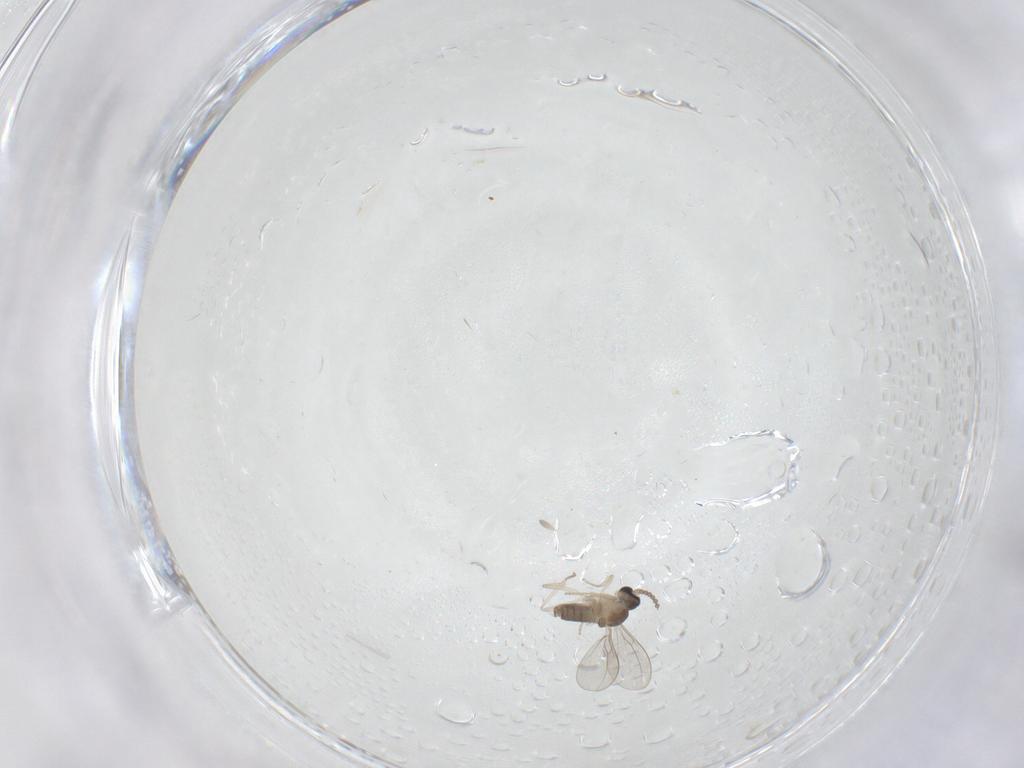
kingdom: Animalia
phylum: Arthropoda
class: Insecta
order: Diptera
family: Cecidomyiidae
